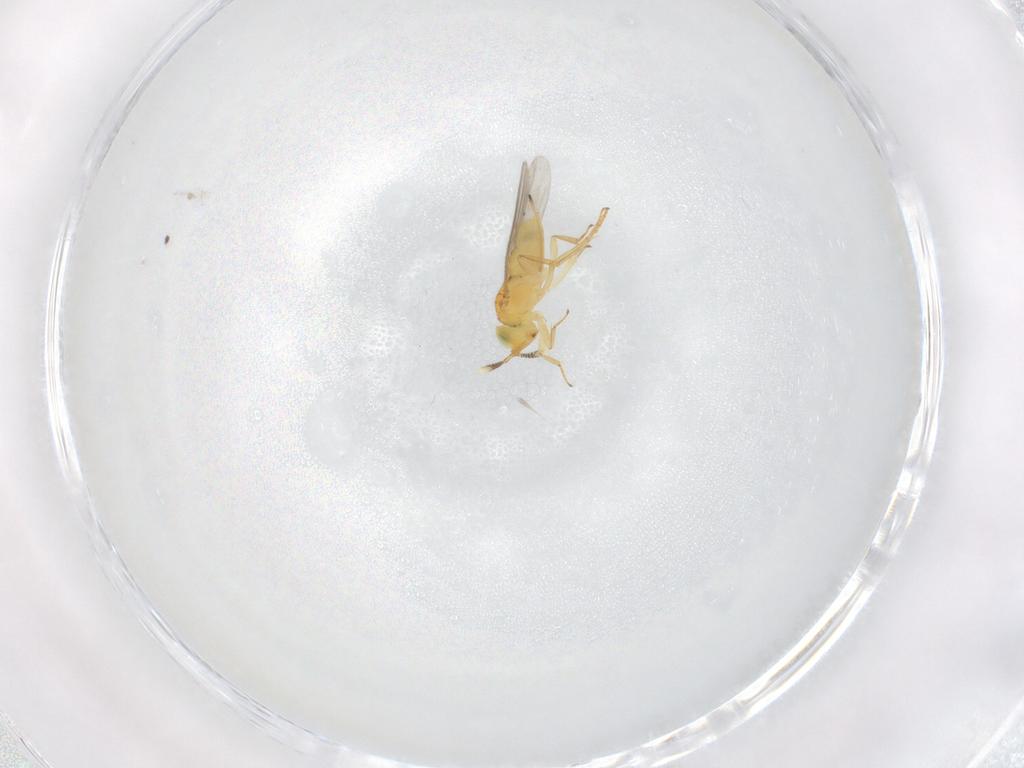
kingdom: Animalia
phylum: Arthropoda
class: Insecta
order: Hymenoptera
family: Encyrtidae
